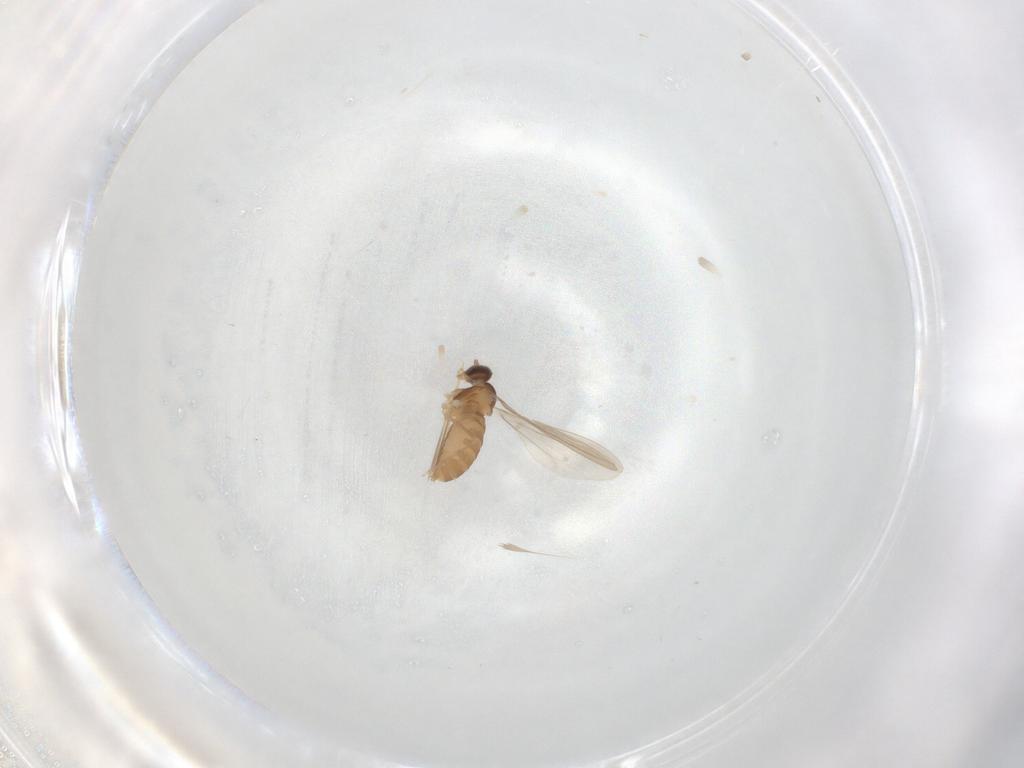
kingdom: Animalia
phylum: Arthropoda
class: Insecta
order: Diptera
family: Cecidomyiidae
